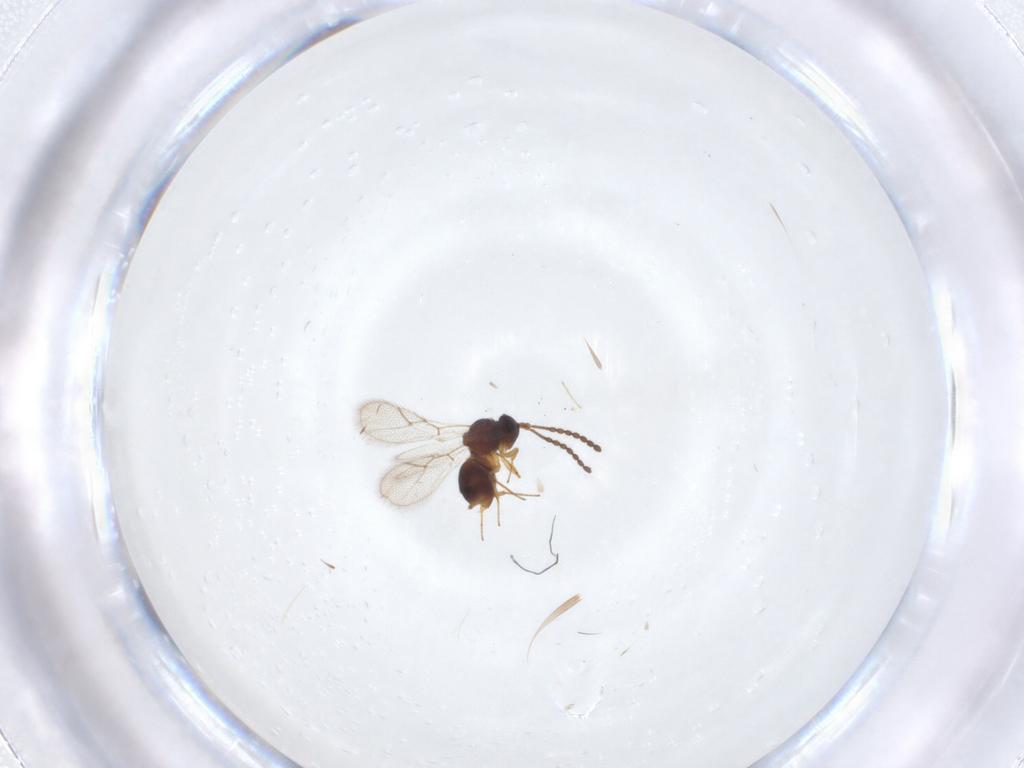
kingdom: Animalia
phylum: Arthropoda
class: Insecta
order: Hymenoptera
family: Figitidae
